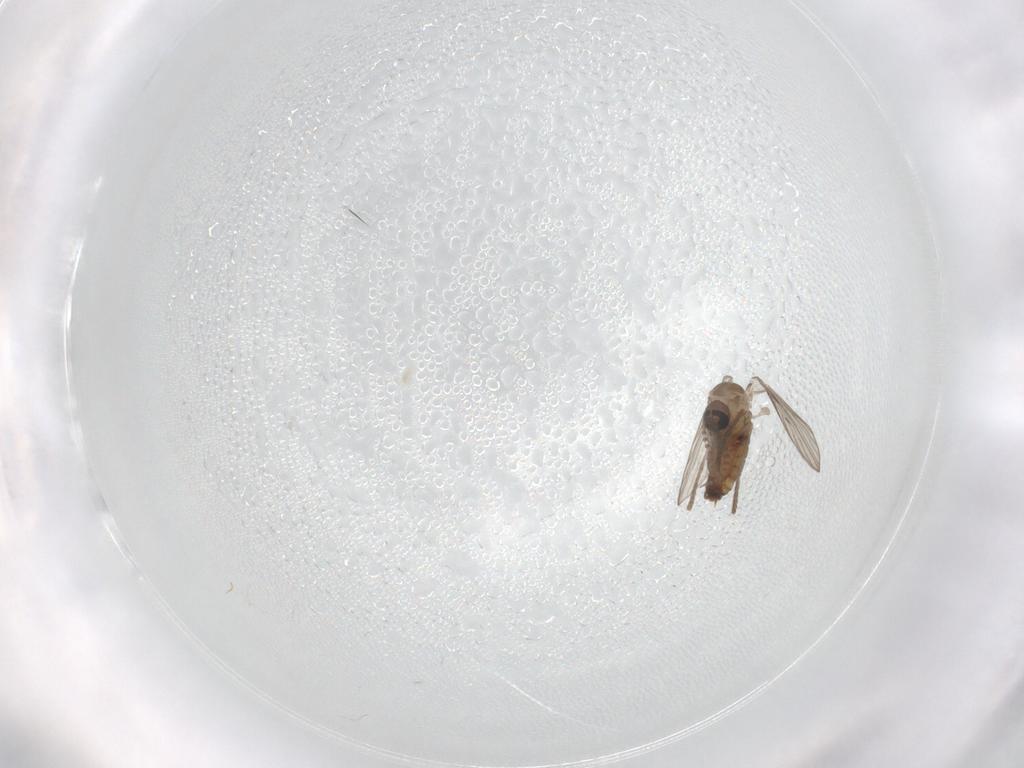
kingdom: Animalia
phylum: Arthropoda
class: Insecta
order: Diptera
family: Psychodidae
